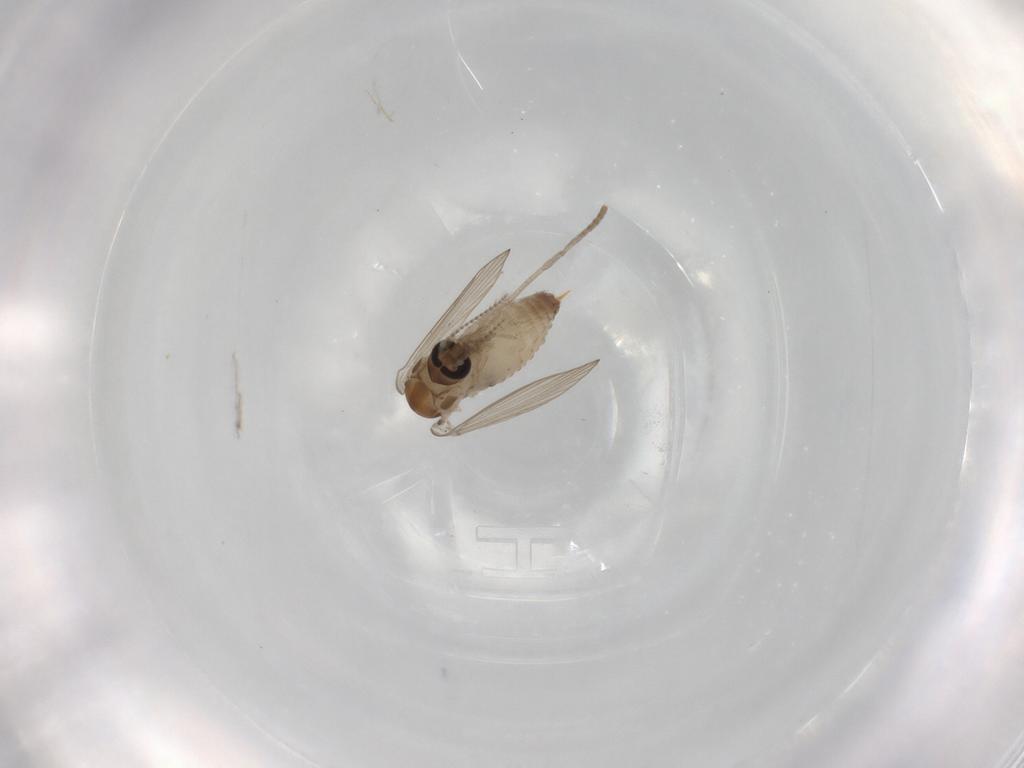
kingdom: Animalia
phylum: Arthropoda
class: Insecta
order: Diptera
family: Psychodidae
